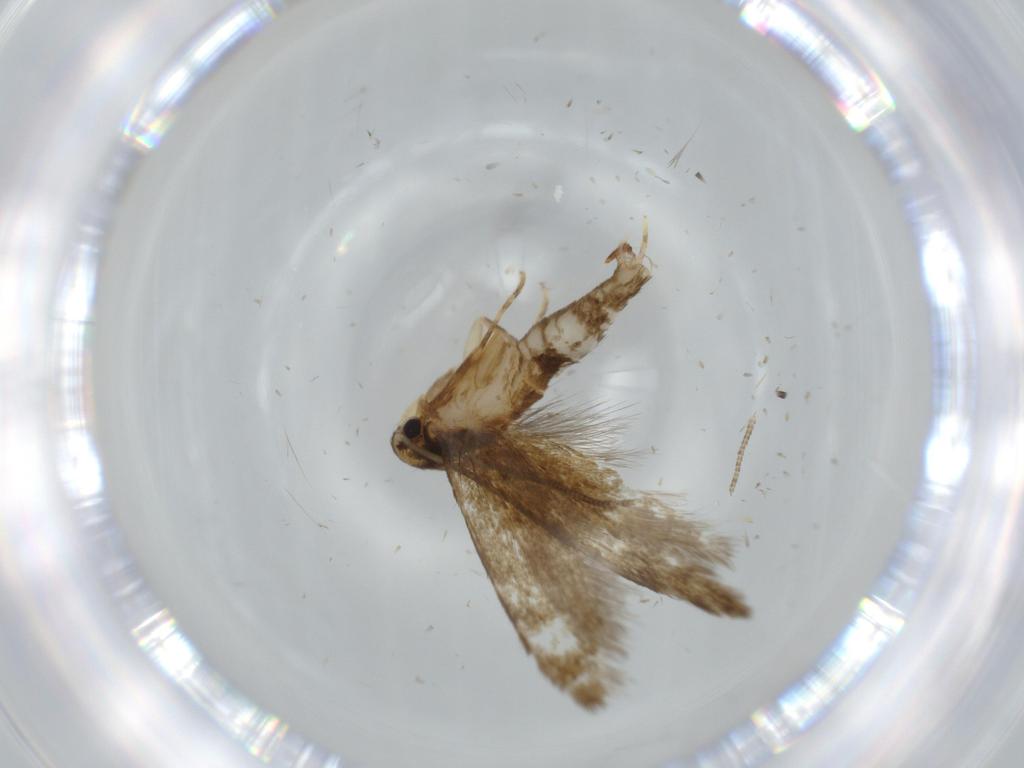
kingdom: Animalia
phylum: Arthropoda
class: Insecta
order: Lepidoptera
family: Tineidae
